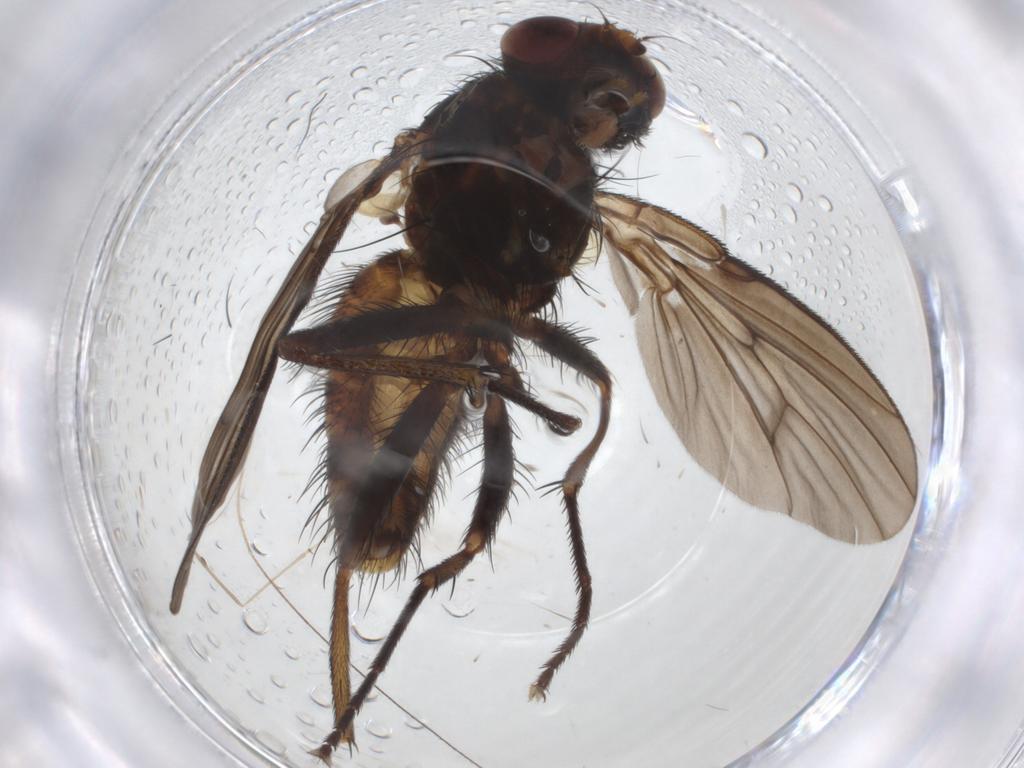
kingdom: Animalia
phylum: Arthropoda
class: Insecta
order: Diptera
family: Muscidae
